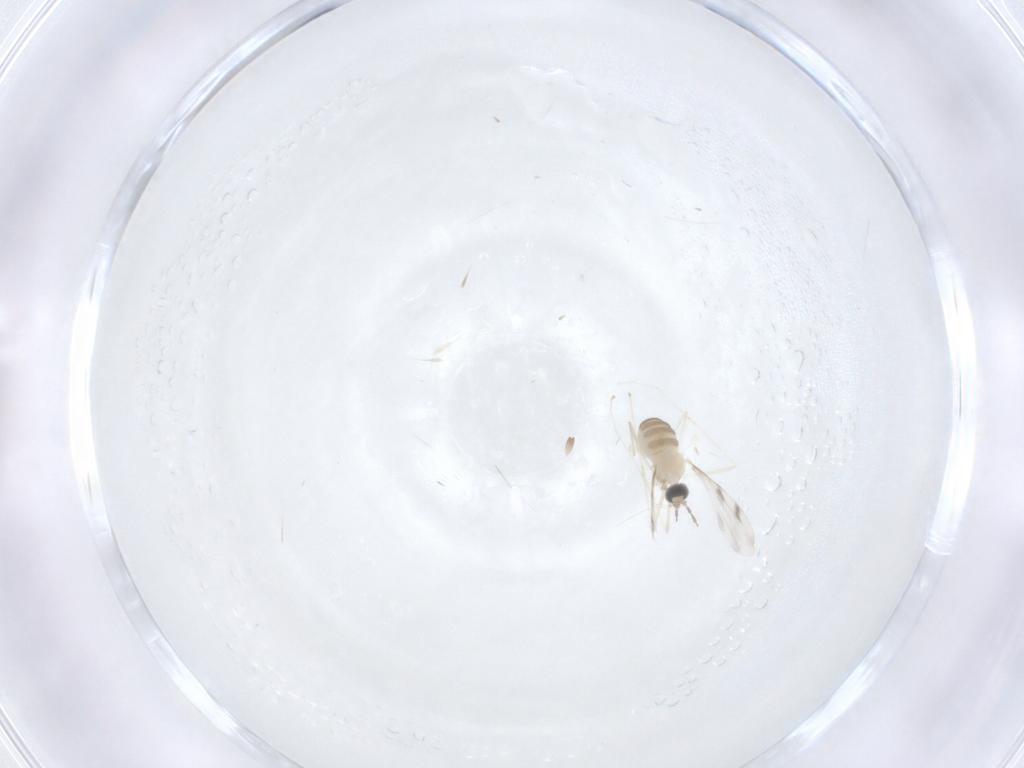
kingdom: Animalia
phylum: Arthropoda
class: Insecta
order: Diptera
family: Cecidomyiidae
